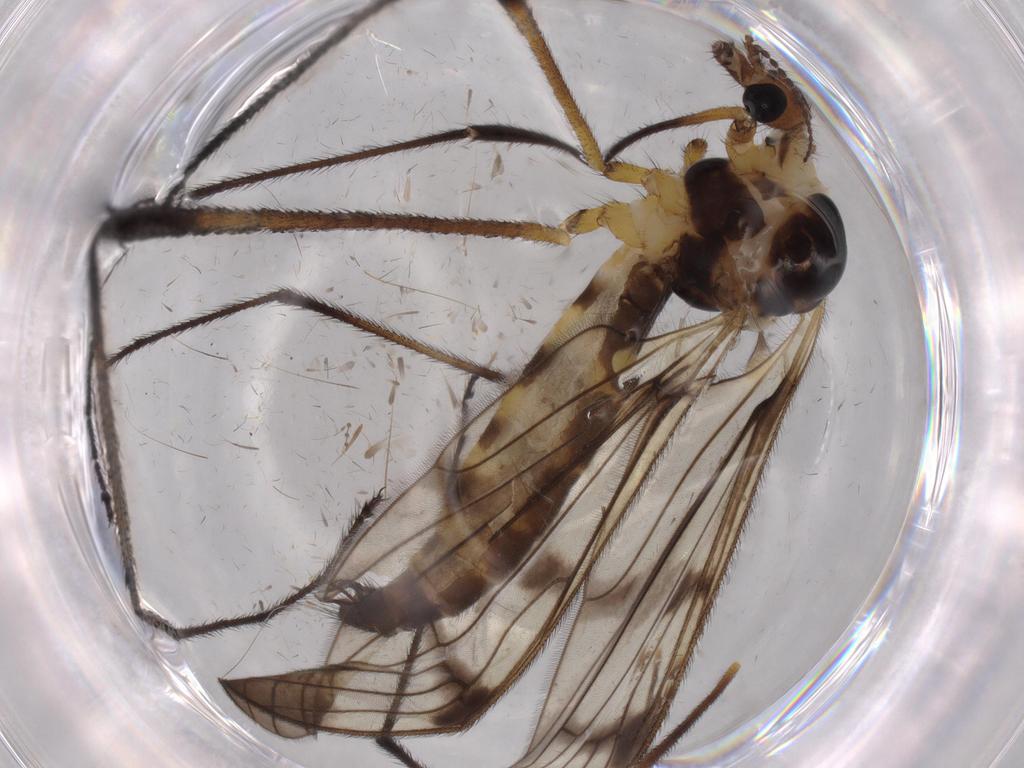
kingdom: Animalia
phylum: Arthropoda
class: Insecta
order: Diptera
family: Limoniidae
